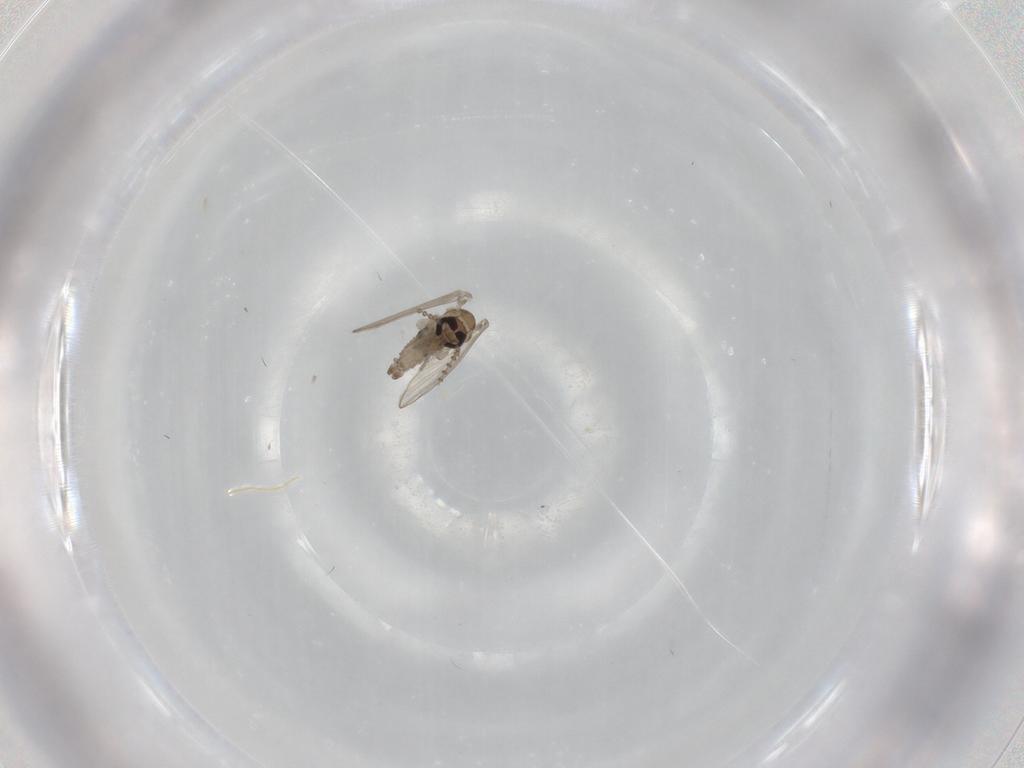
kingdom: Animalia
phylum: Arthropoda
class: Insecta
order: Diptera
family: Psychodidae
